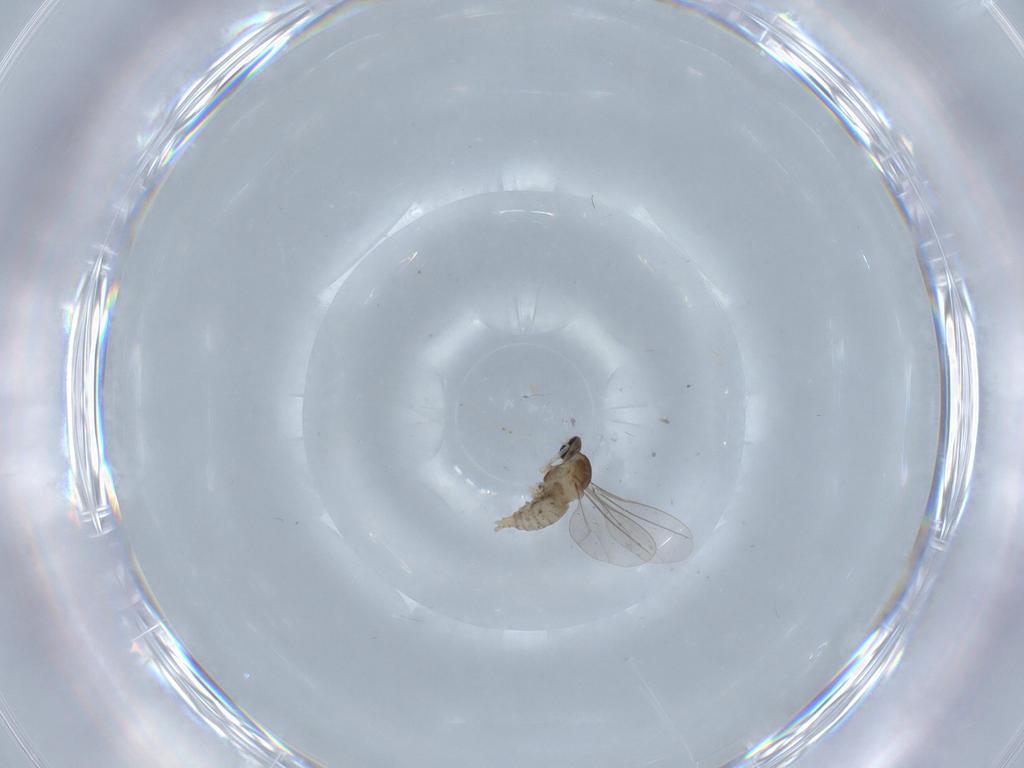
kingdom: Animalia
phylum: Arthropoda
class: Insecta
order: Diptera
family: Cecidomyiidae
